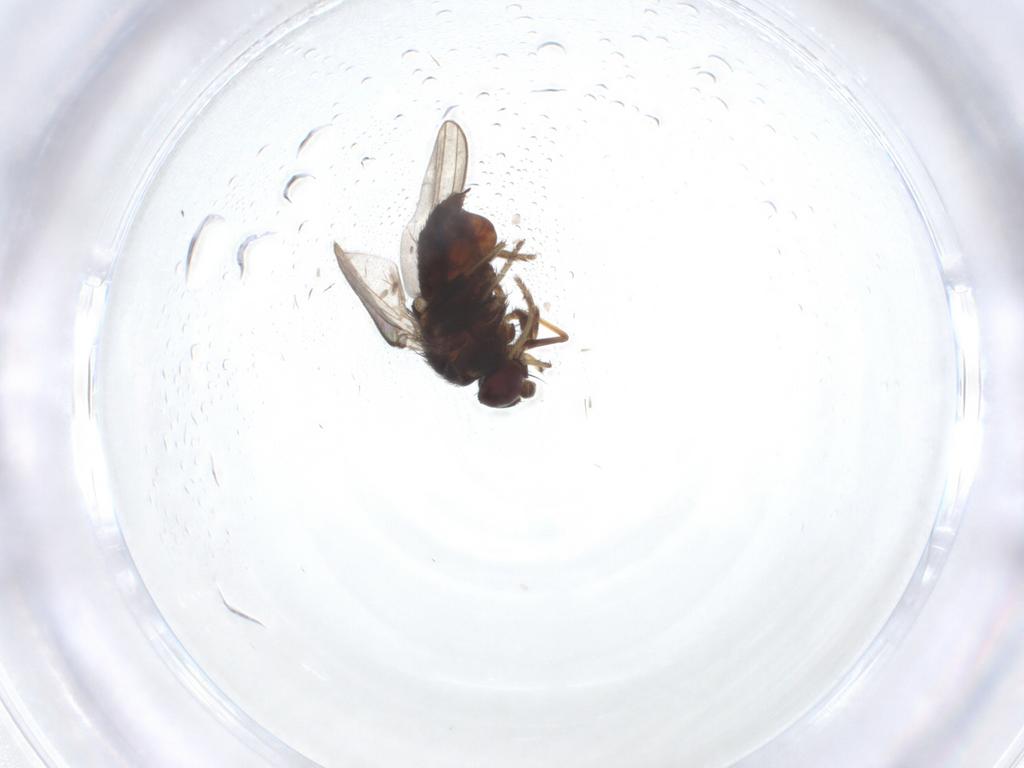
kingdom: Animalia
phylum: Arthropoda
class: Insecta
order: Diptera
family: Milichiidae
